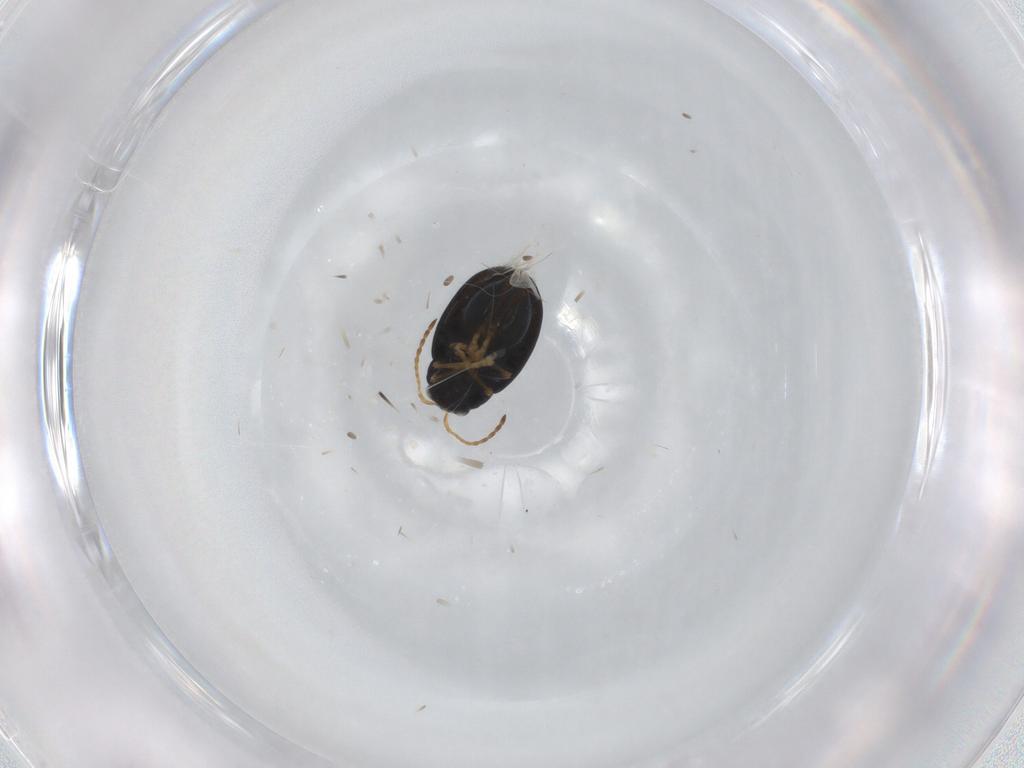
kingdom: Animalia
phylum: Arthropoda
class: Insecta
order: Coleoptera
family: Chrysomelidae
